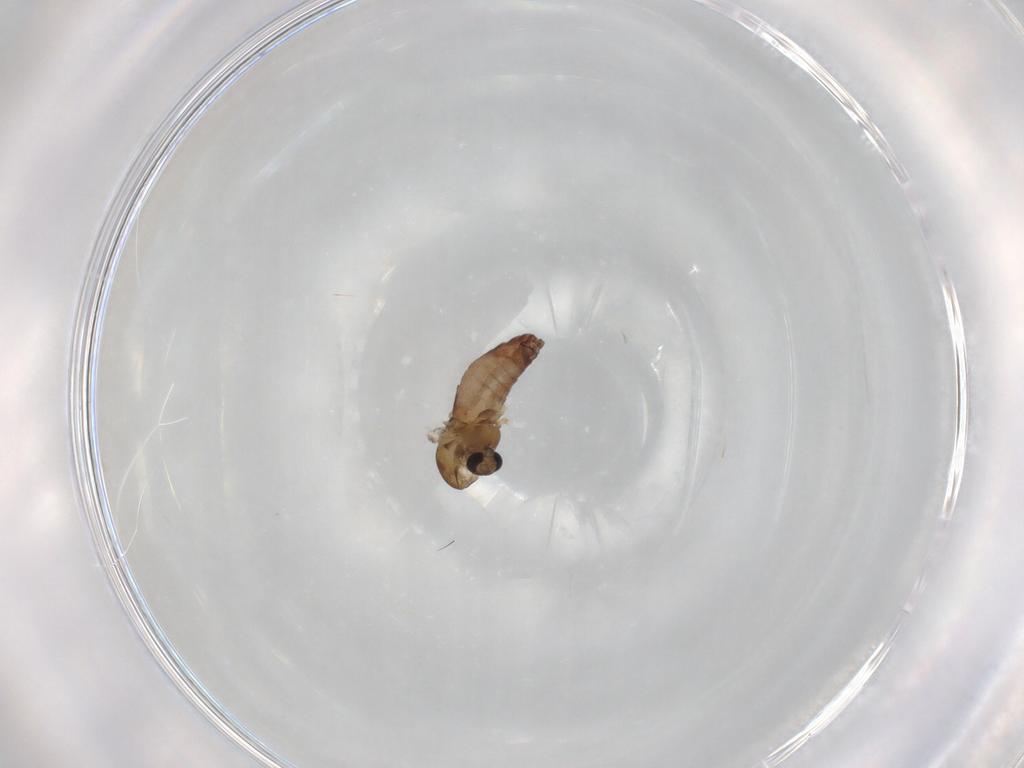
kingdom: Animalia
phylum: Arthropoda
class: Insecta
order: Diptera
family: Chironomidae
